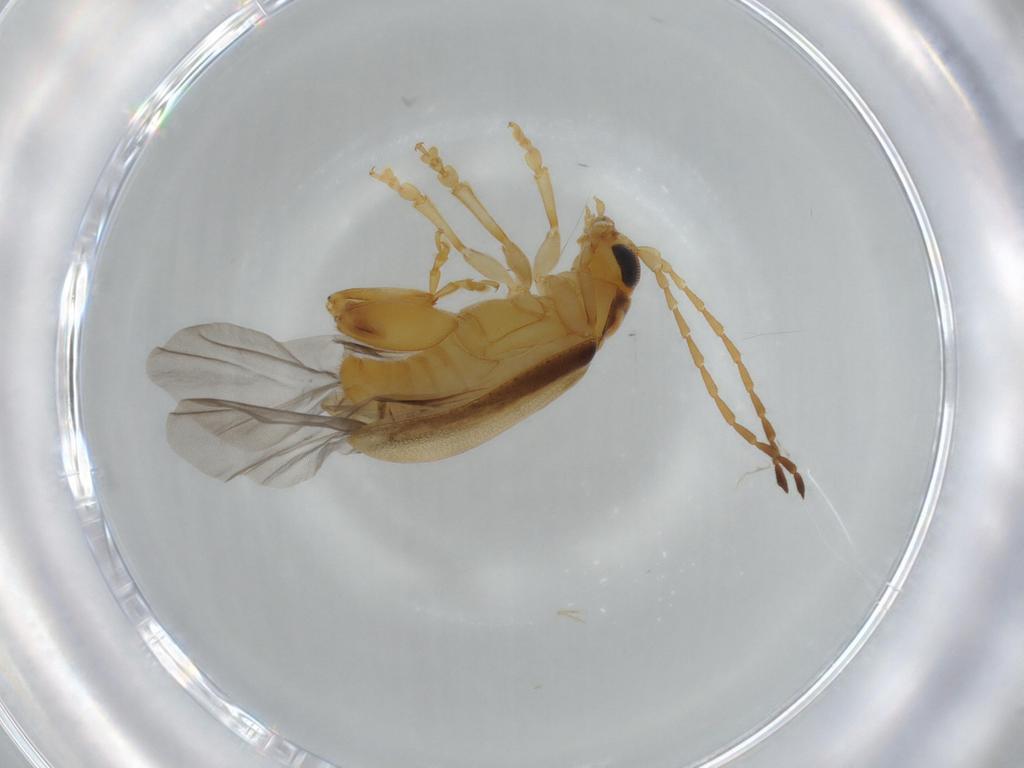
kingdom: Animalia
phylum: Arthropoda
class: Insecta
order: Coleoptera
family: Chrysomelidae
